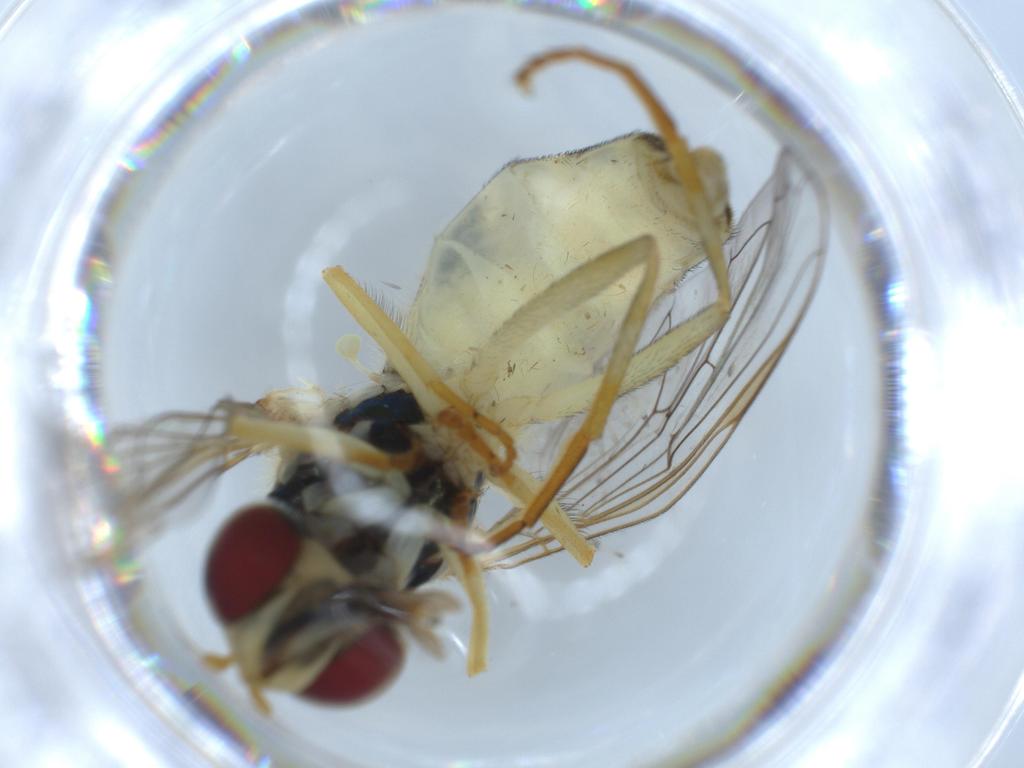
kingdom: Animalia
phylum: Arthropoda
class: Insecta
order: Diptera
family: Syrphidae
